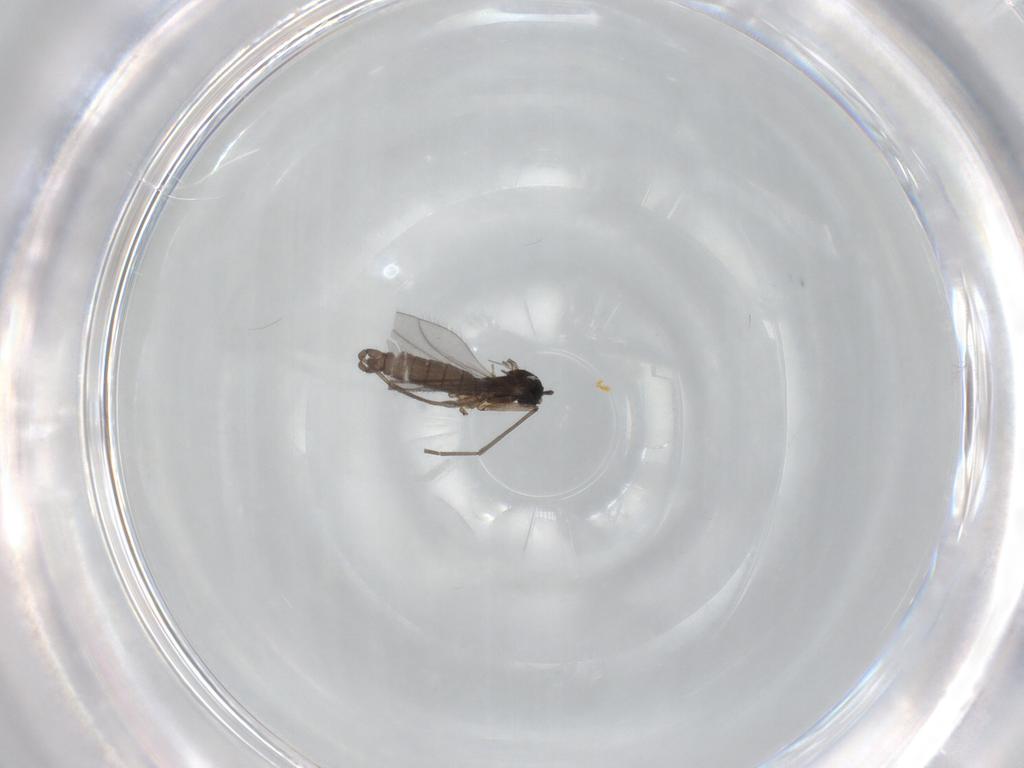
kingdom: Animalia
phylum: Arthropoda
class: Insecta
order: Diptera
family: Sciaridae
